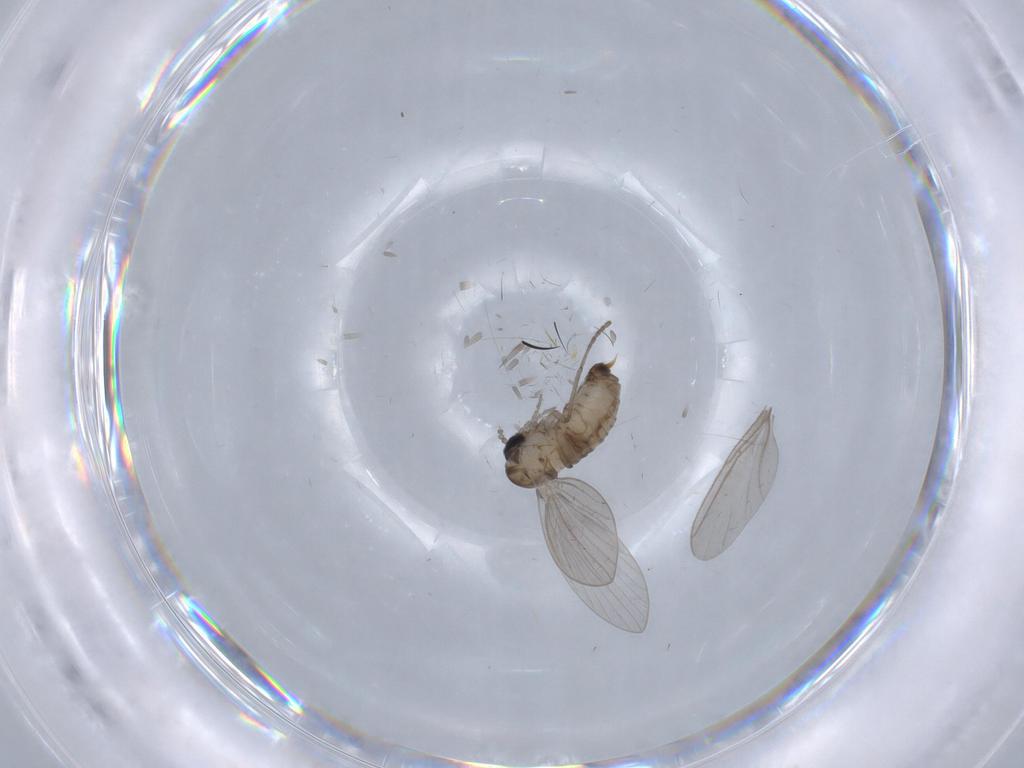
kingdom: Animalia
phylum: Arthropoda
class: Insecta
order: Diptera
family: Drosophilidae
